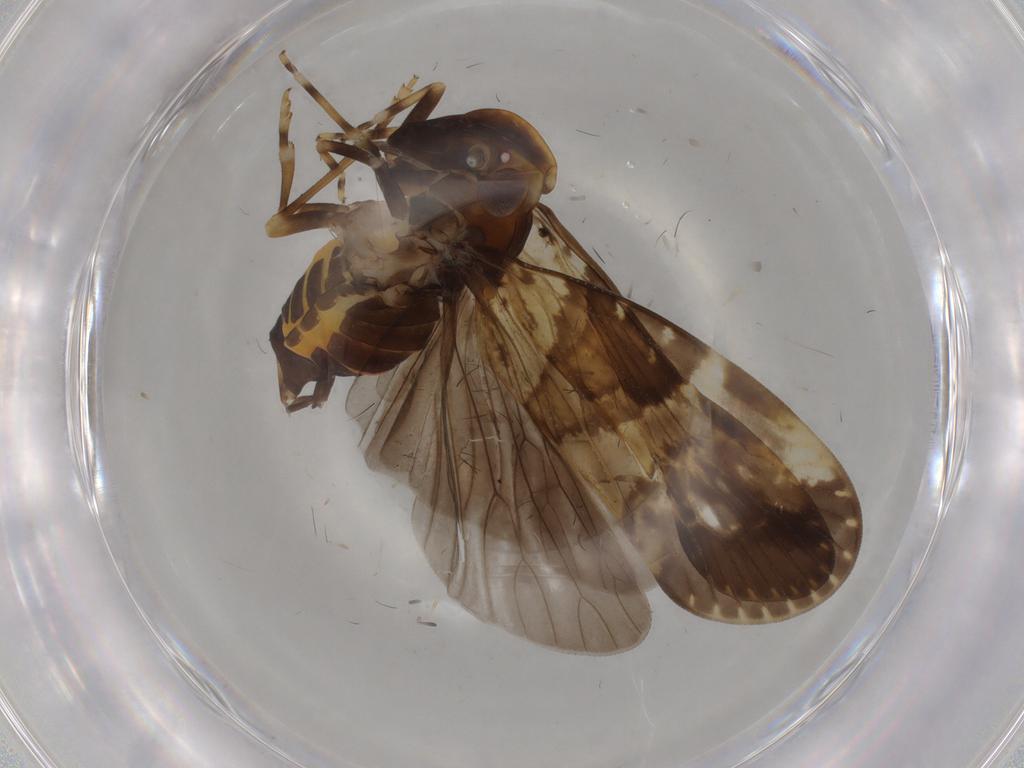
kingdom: Animalia
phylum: Arthropoda
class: Insecta
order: Hemiptera
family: Cixiidae
